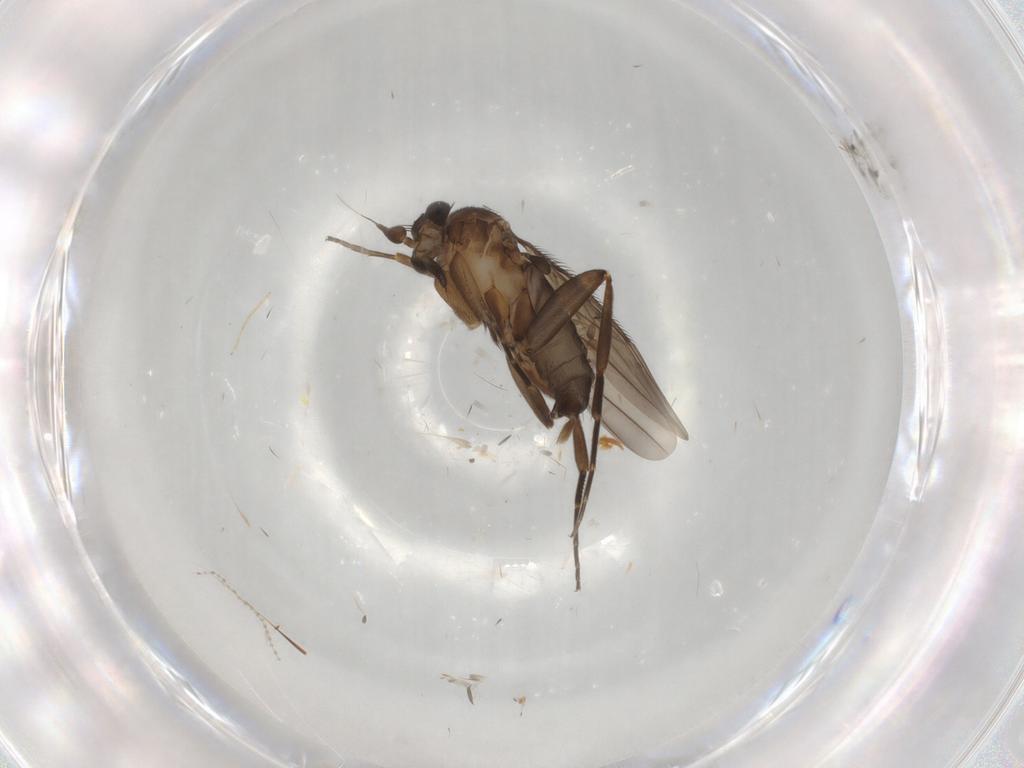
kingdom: Animalia
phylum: Arthropoda
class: Insecta
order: Diptera
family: Phoridae
